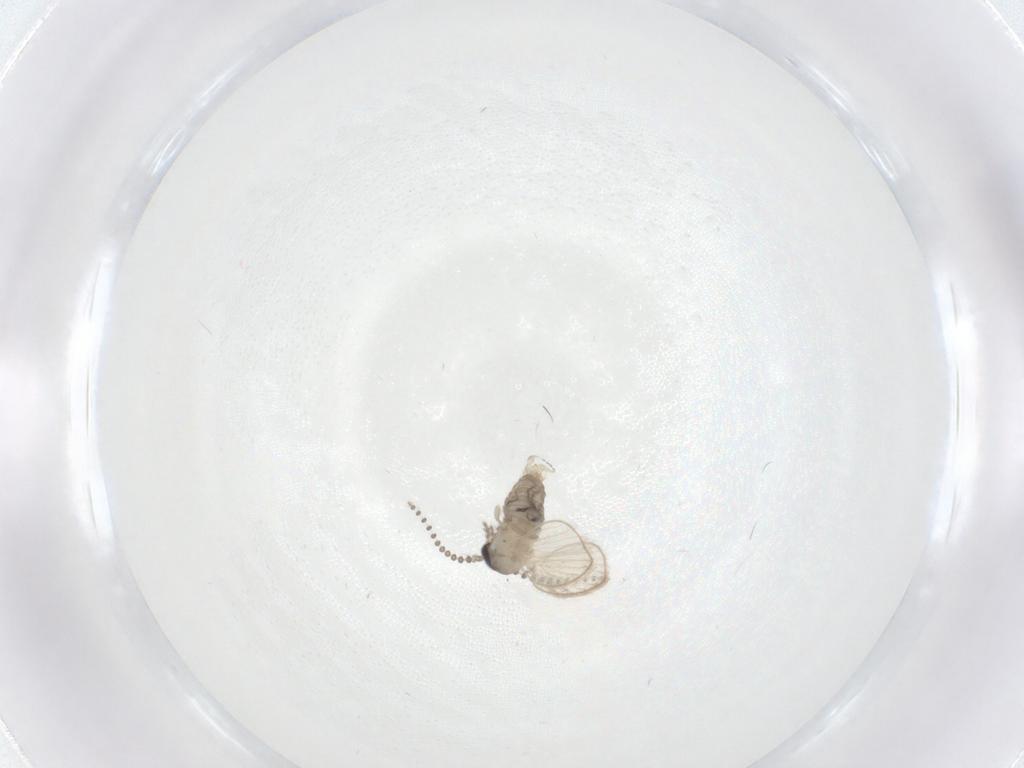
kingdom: Animalia
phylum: Arthropoda
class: Insecta
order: Diptera
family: Psychodidae
